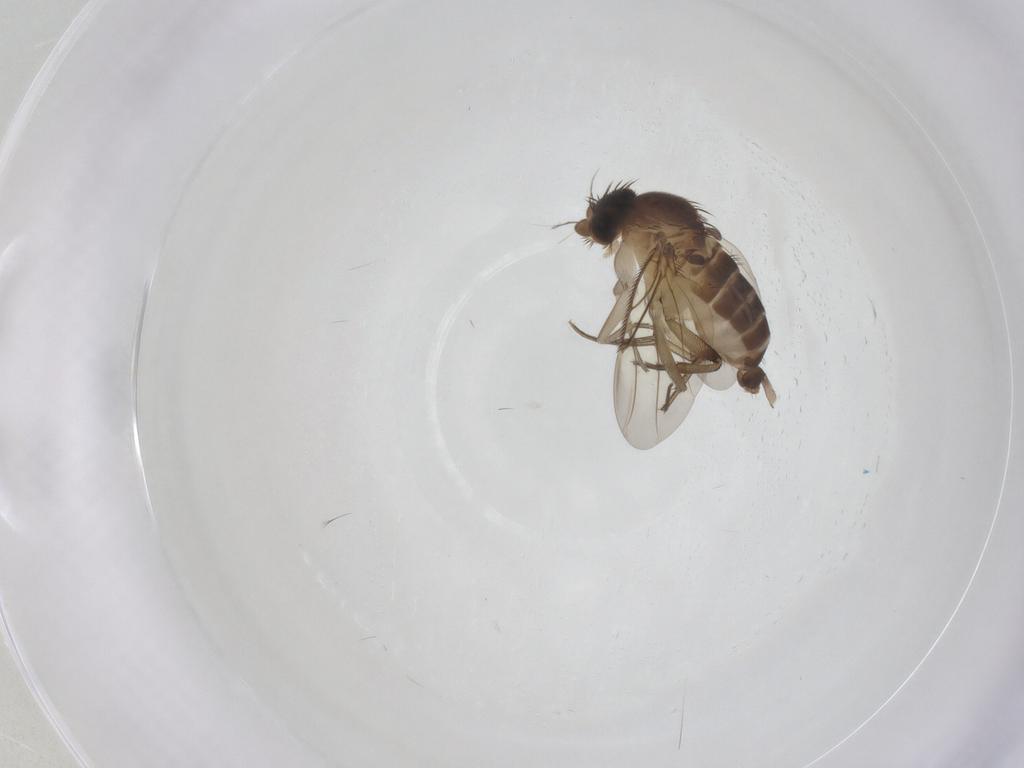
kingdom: Animalia
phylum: Arthropoda
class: Insecta
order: Diptera
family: Phoridae
